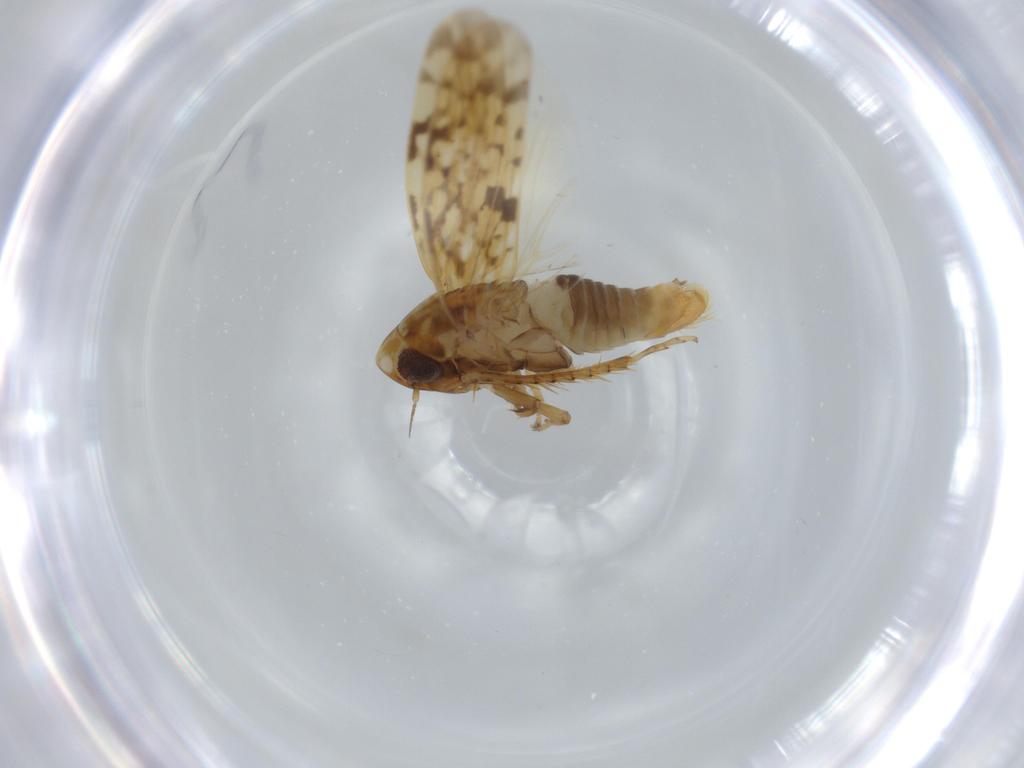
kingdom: Animalia
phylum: Arthropoda
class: Insecta
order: Hemiptera
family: Cicadellidae
